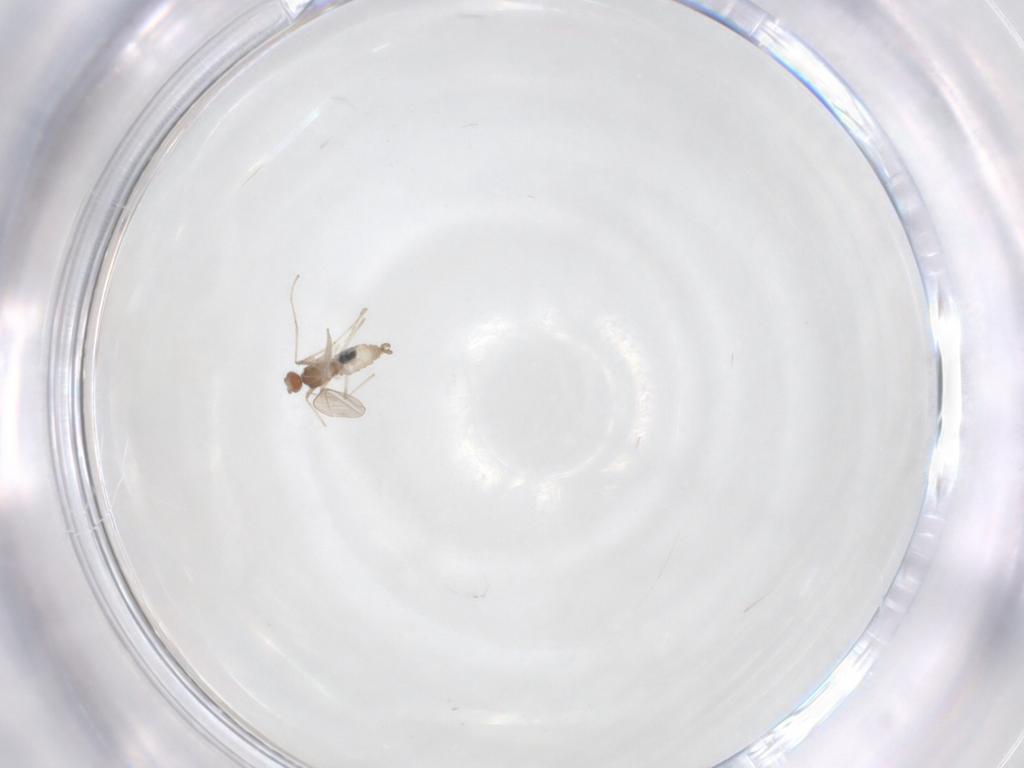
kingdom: Animalia
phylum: Arthropoda
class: Insecta
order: Diptera
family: Cecidomyiidae
